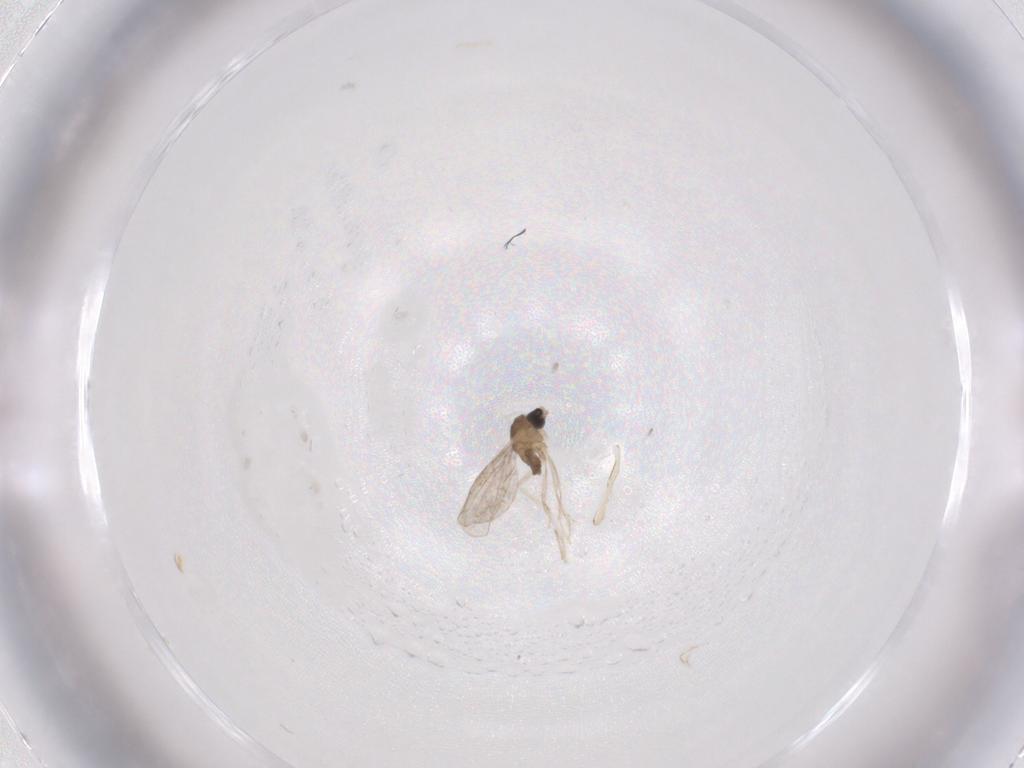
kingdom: Animalia
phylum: Arthropoda
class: Insecta
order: Diptera
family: Cecidomyiidae
